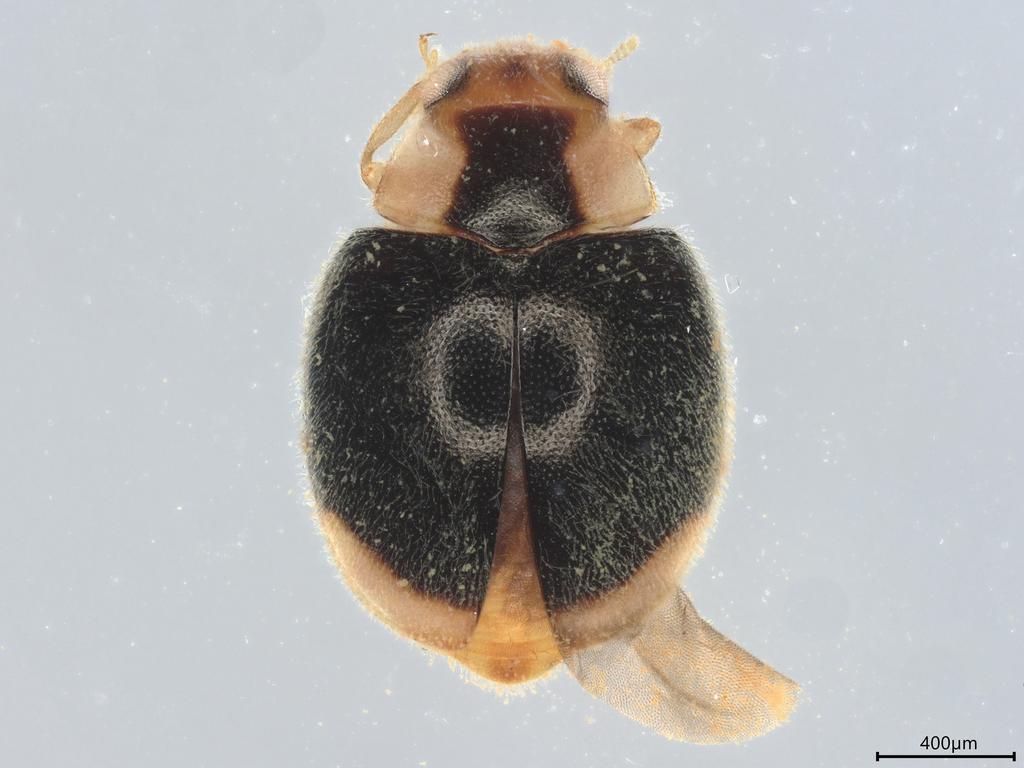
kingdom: Animalia
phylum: Arthropoda
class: Insecta
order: Coleoptera
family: Coccinellidae
